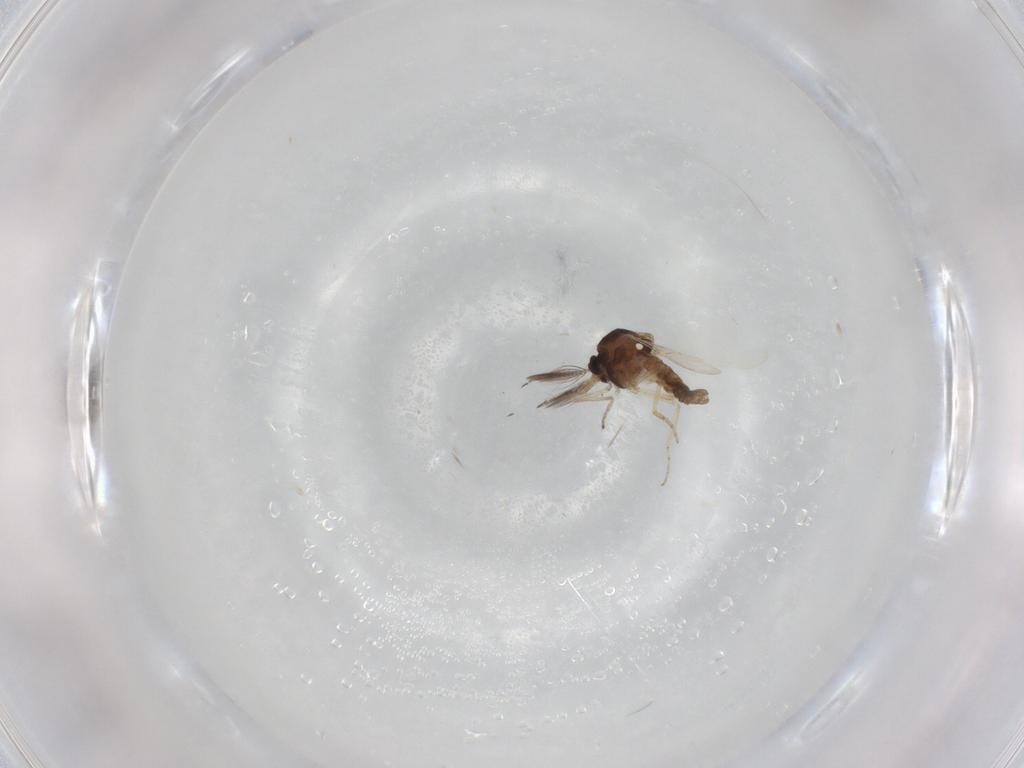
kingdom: Animalia
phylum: Arthropoda
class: Insecta
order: Diptera
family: Ceratopogonidae
